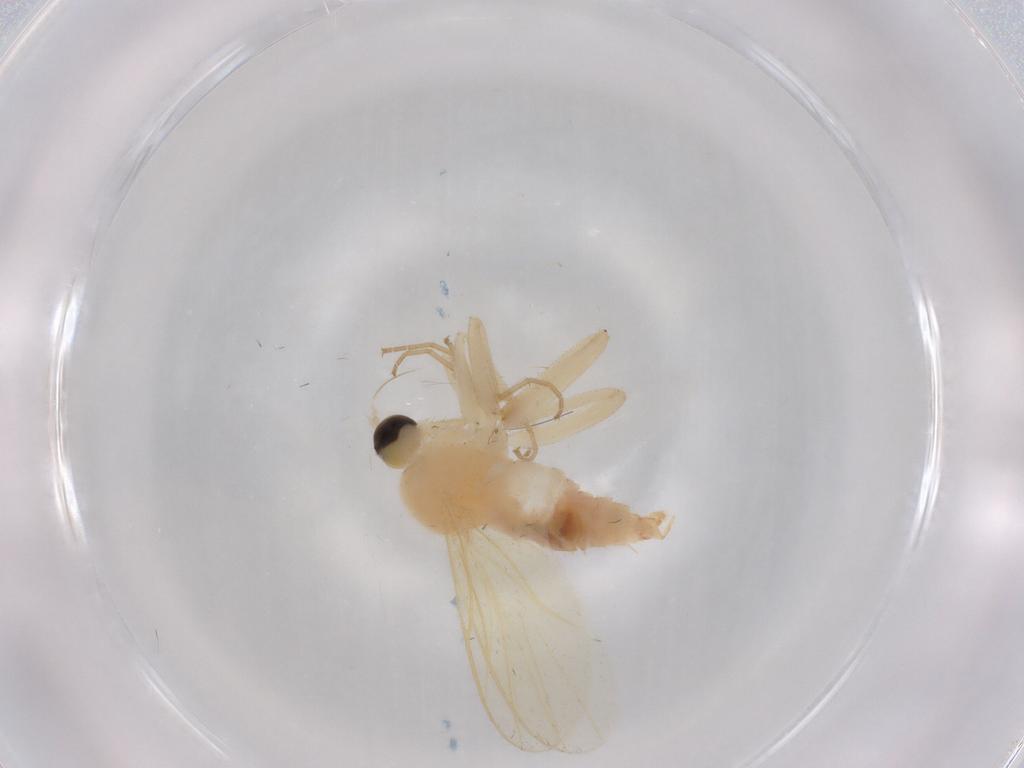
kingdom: Animalia
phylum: Arthropoda
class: Insecta
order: Diptera
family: Hybotidae
